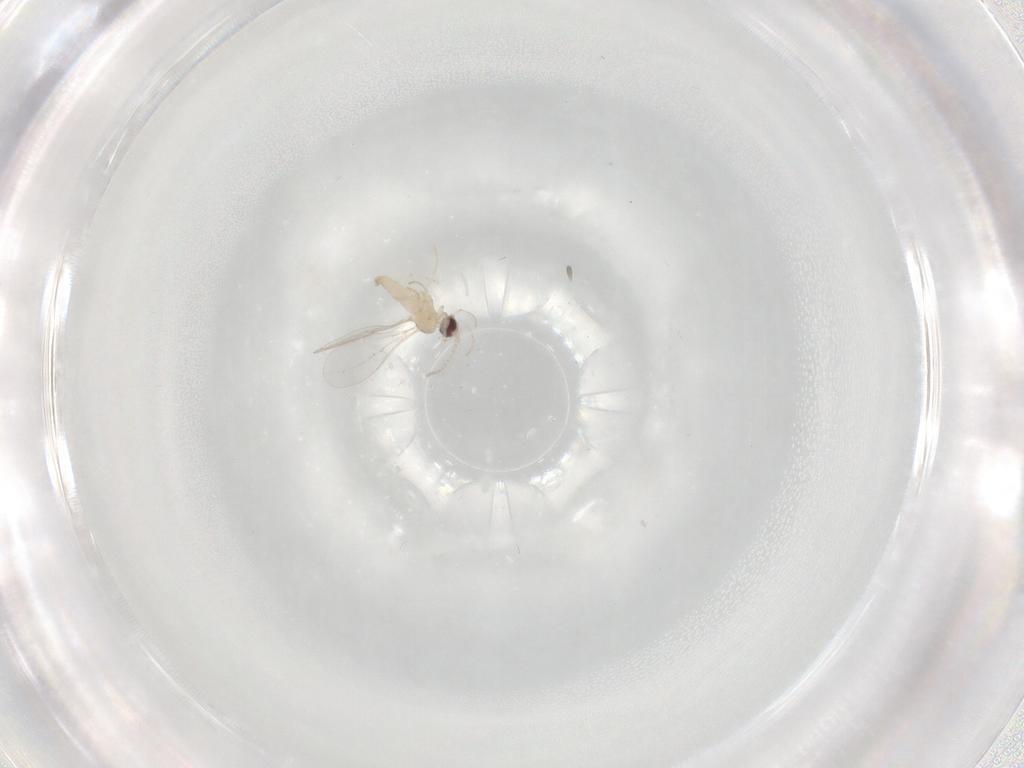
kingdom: Animalia
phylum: Arthropoda
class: Insecta
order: Diptera
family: Cecidomyiidae
